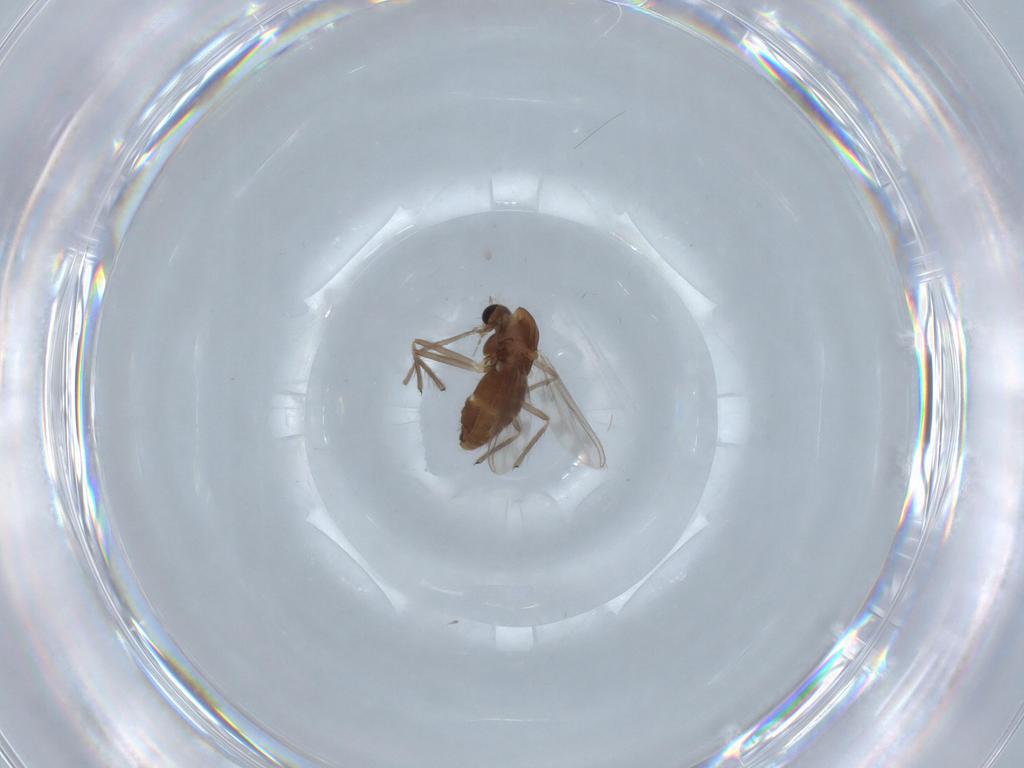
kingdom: Animalia
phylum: Arthropoda
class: Insecta
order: Diptera
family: Chironomidae
